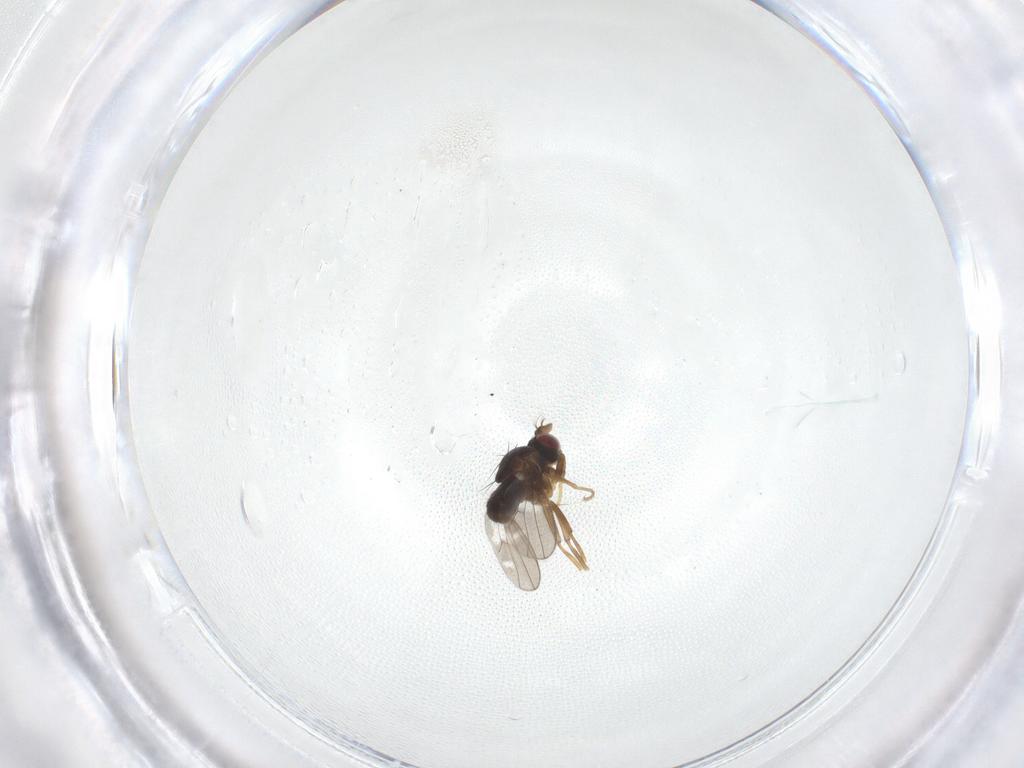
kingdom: Animalia
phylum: Arthropoda
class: Insecta
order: Diptera
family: Ephydridae
